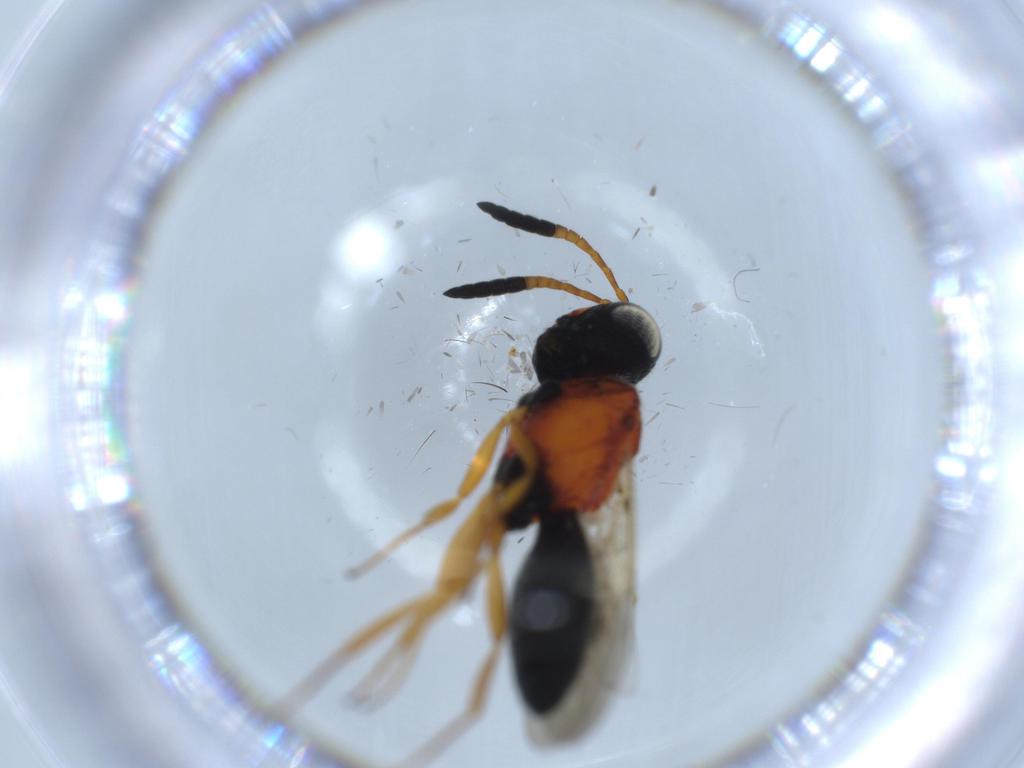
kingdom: Animalia
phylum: Arthropoda
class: Insecta
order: Hymenoptera
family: Scelionidae
